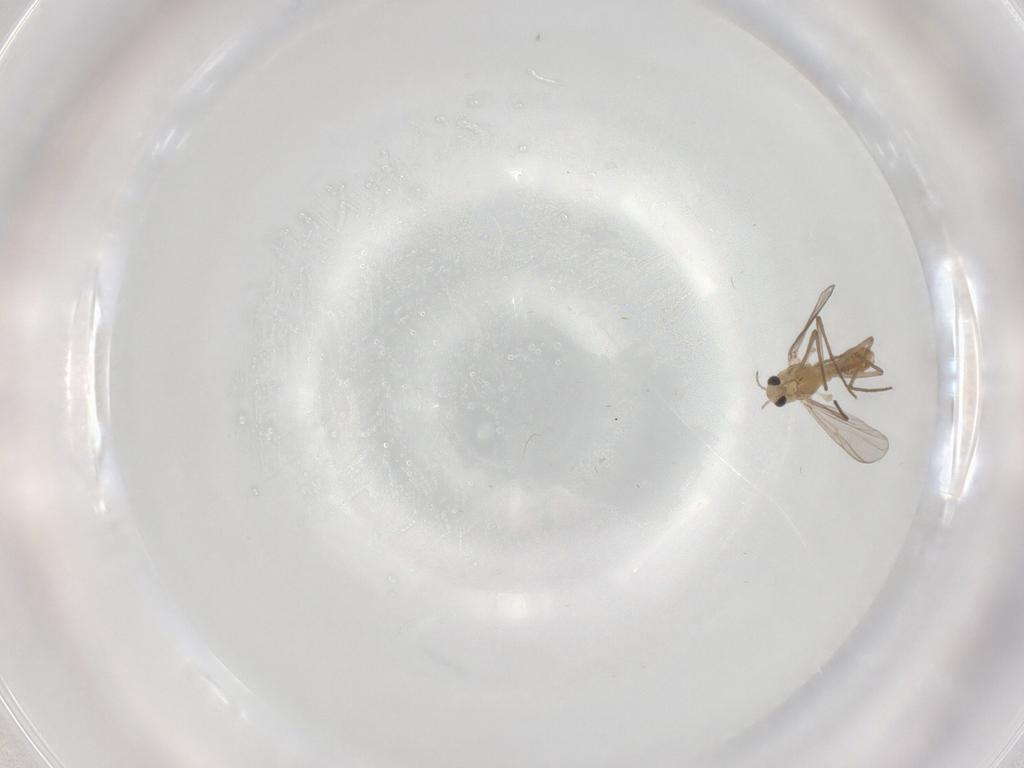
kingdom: Animalia
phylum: Arthropoda
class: Insecta
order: Diptera
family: Chironomidae
